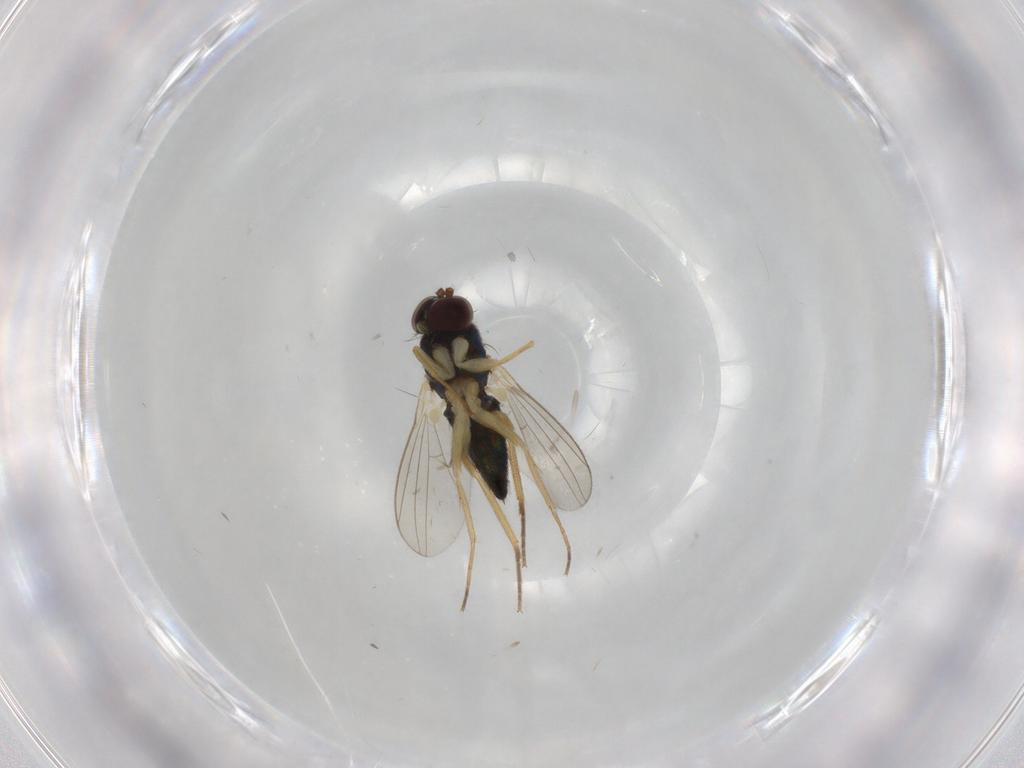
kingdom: Animalia
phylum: Arthropoda
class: Insecta
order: Diptera
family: Dolichopodidae
